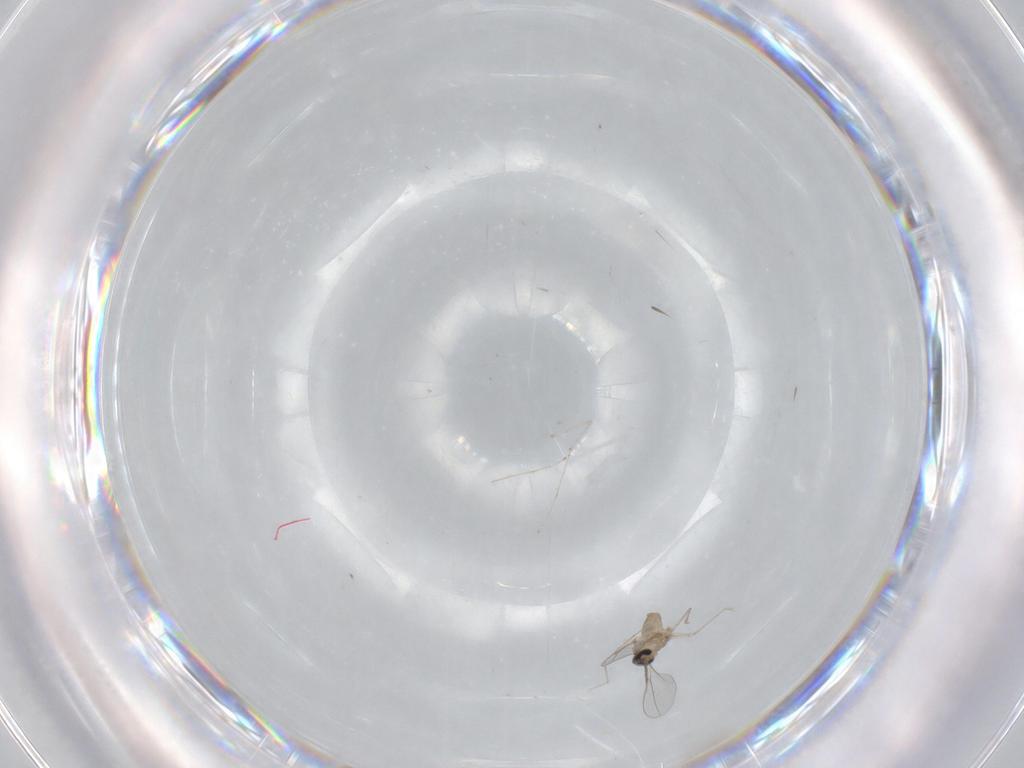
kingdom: Animalia
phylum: Arthropoda
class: Insecta
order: Diptera
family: Cecidomyiidae
